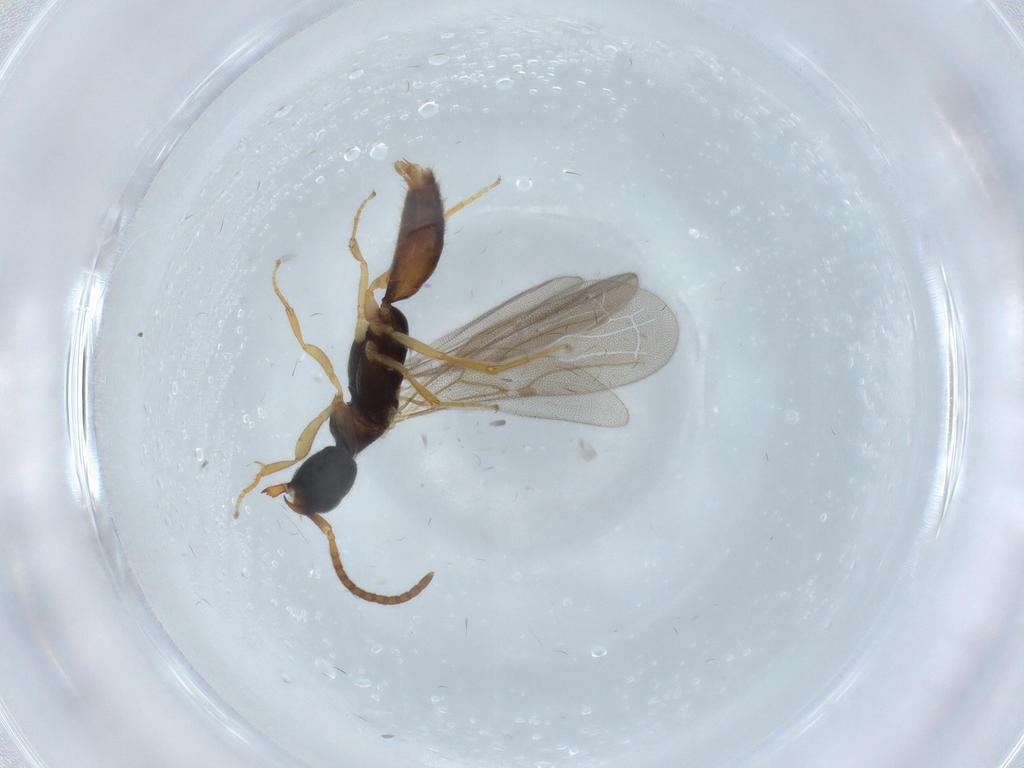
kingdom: Animalia
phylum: Arthropoda
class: Insecta
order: Hymenoptera
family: Bethylidae
